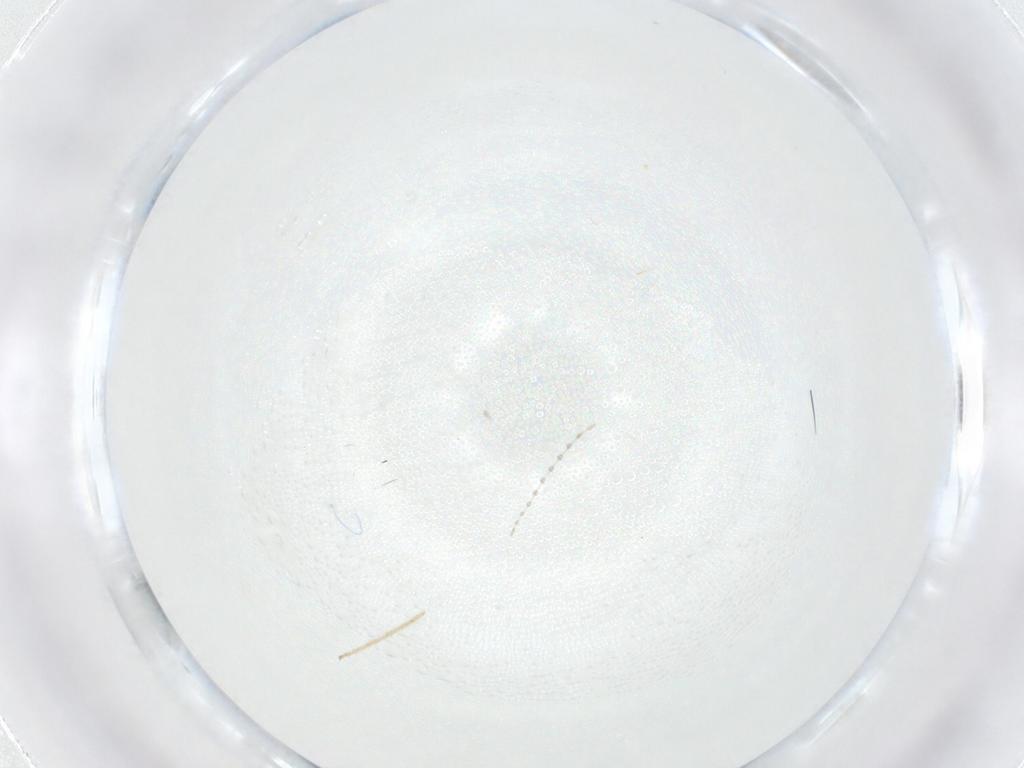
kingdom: Animalia
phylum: Arthropoda
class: Insecta
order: Diptera
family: Cecidomyiidae
